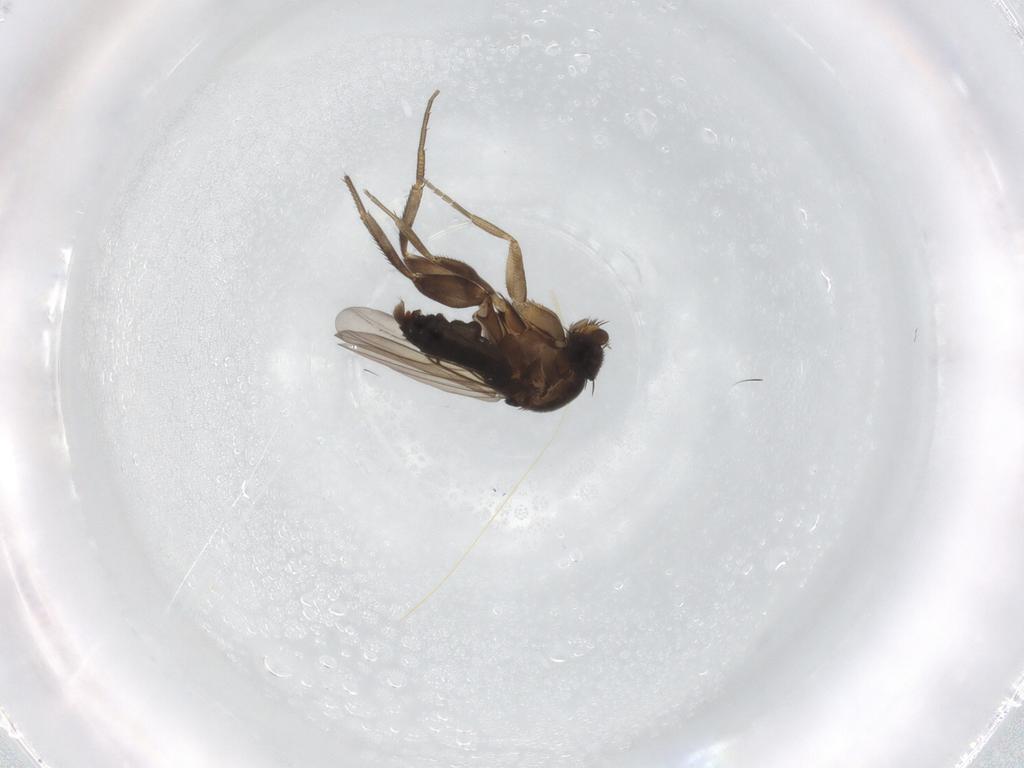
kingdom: Animalia
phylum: Arthropoda
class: Insecta
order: Diptera
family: Phoridae
